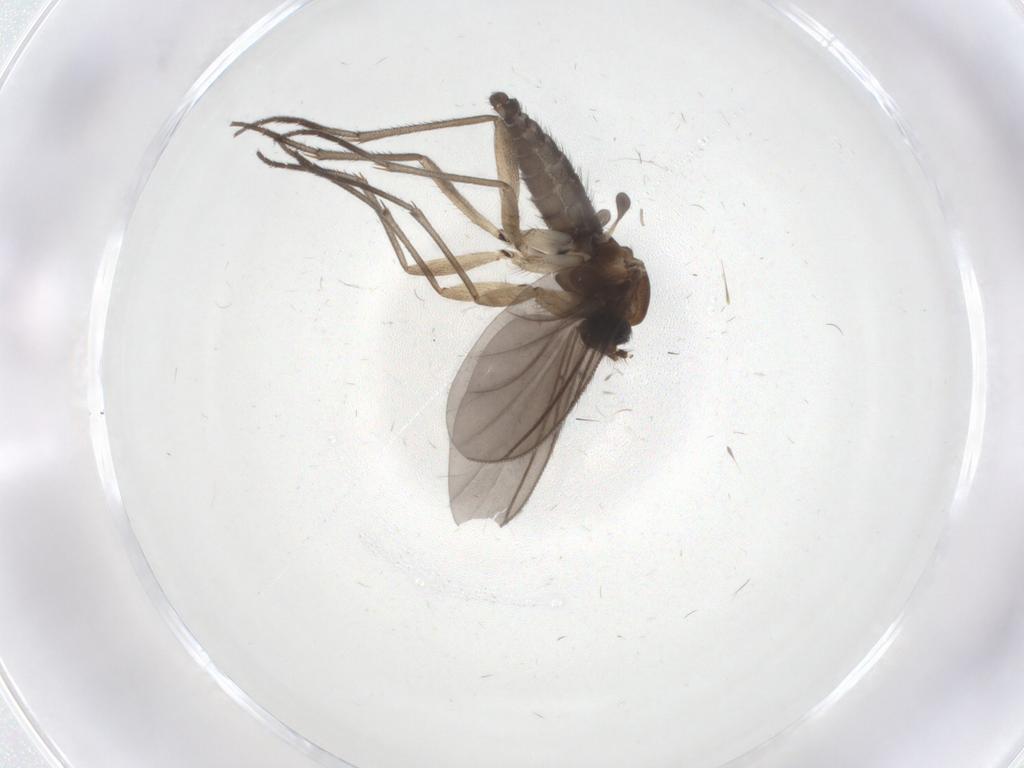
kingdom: Animalia
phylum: Arthropoda
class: Insecta
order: Diptera
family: Sciaridae
